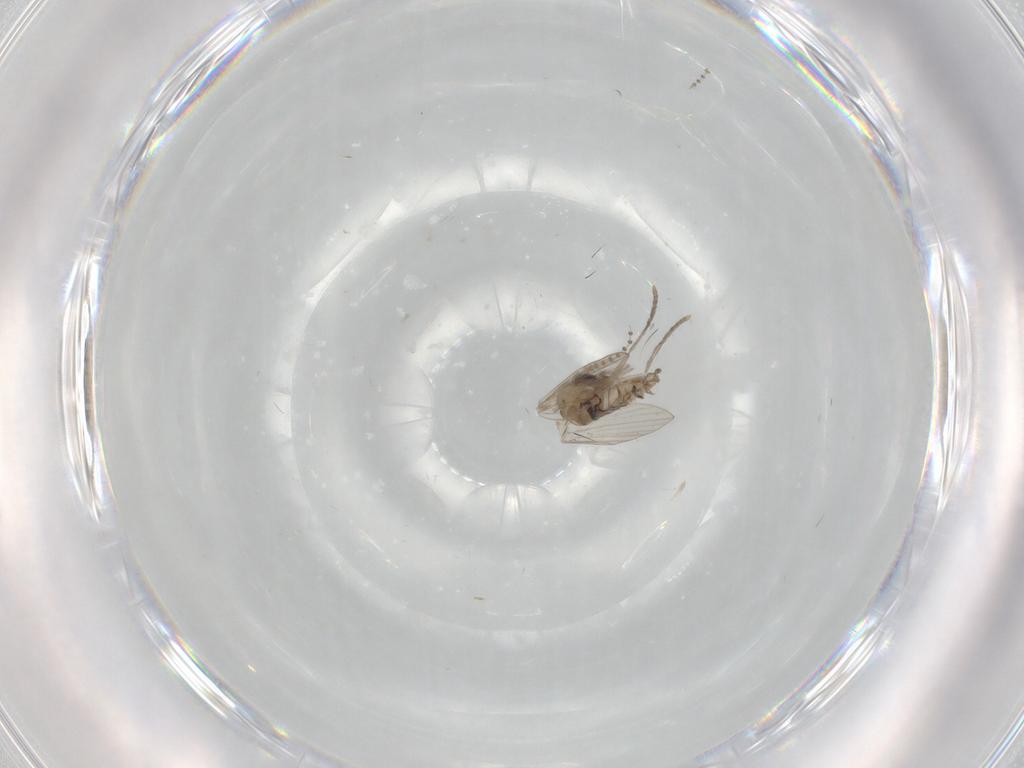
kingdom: Animalia
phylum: Arthropoda
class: Insecta
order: Diptera
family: Psychodidae
